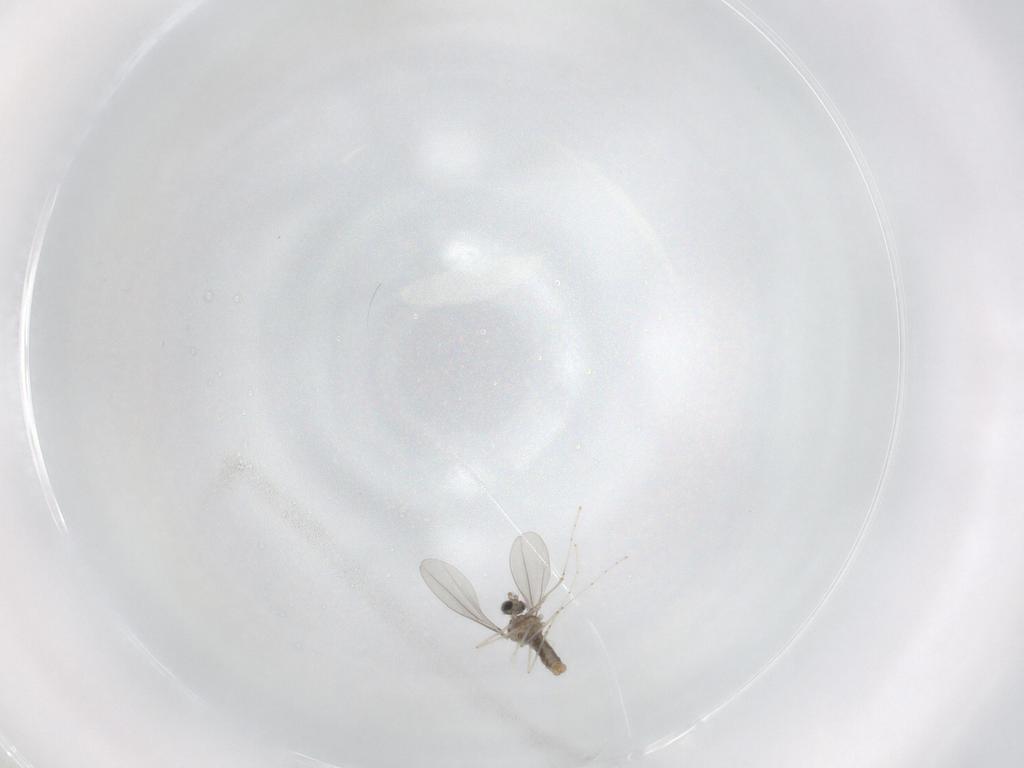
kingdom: Animalia
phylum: Arthropoda
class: Insecta
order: Diptera
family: Cecidomyiidae
